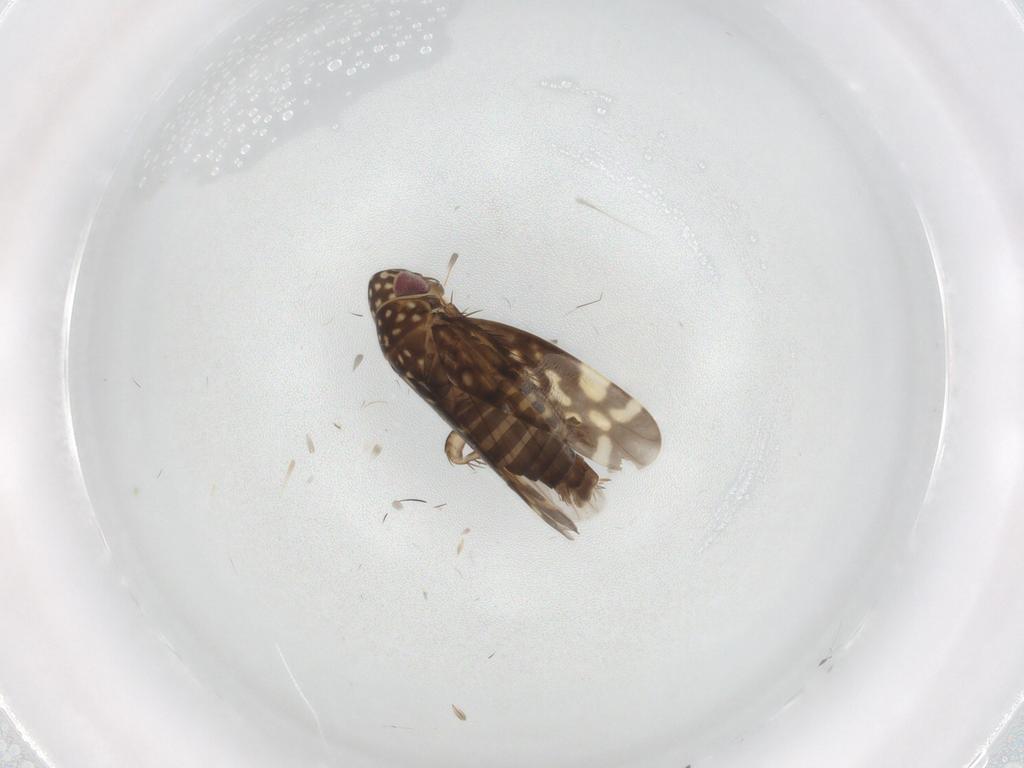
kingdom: Animalia
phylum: Arthropoda
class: Insecta
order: Hemiptera
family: Cicadellidae
